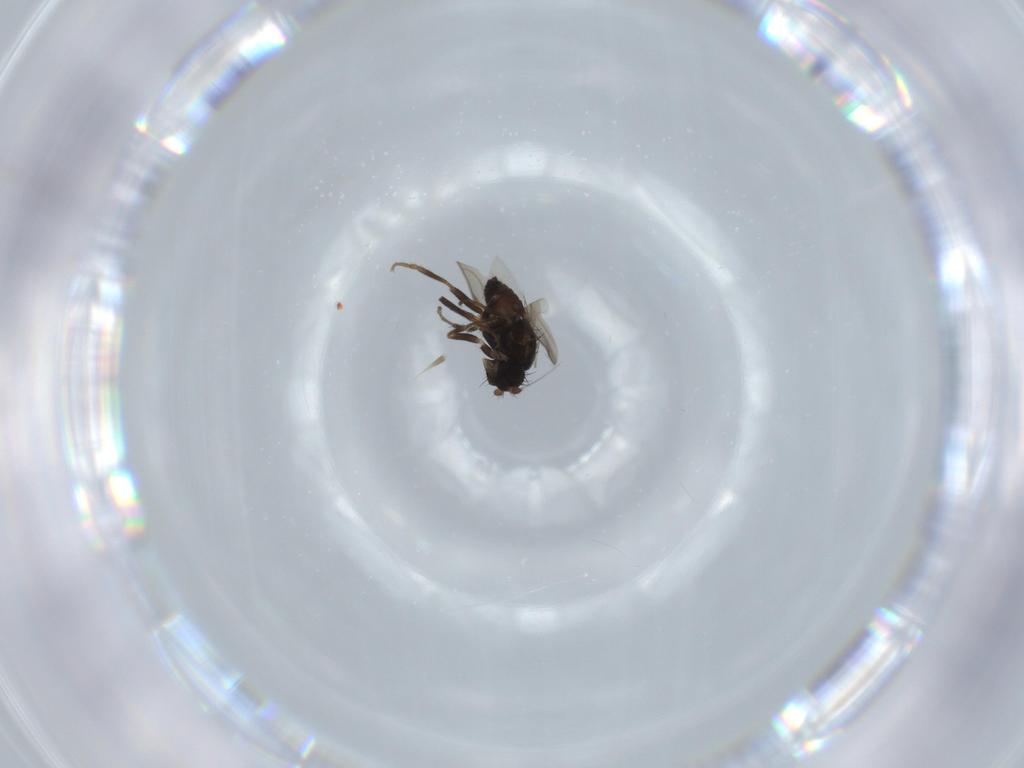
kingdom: Animalia
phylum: Arthropoda
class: Insecta
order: Diptera
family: Sphaeroceridae
